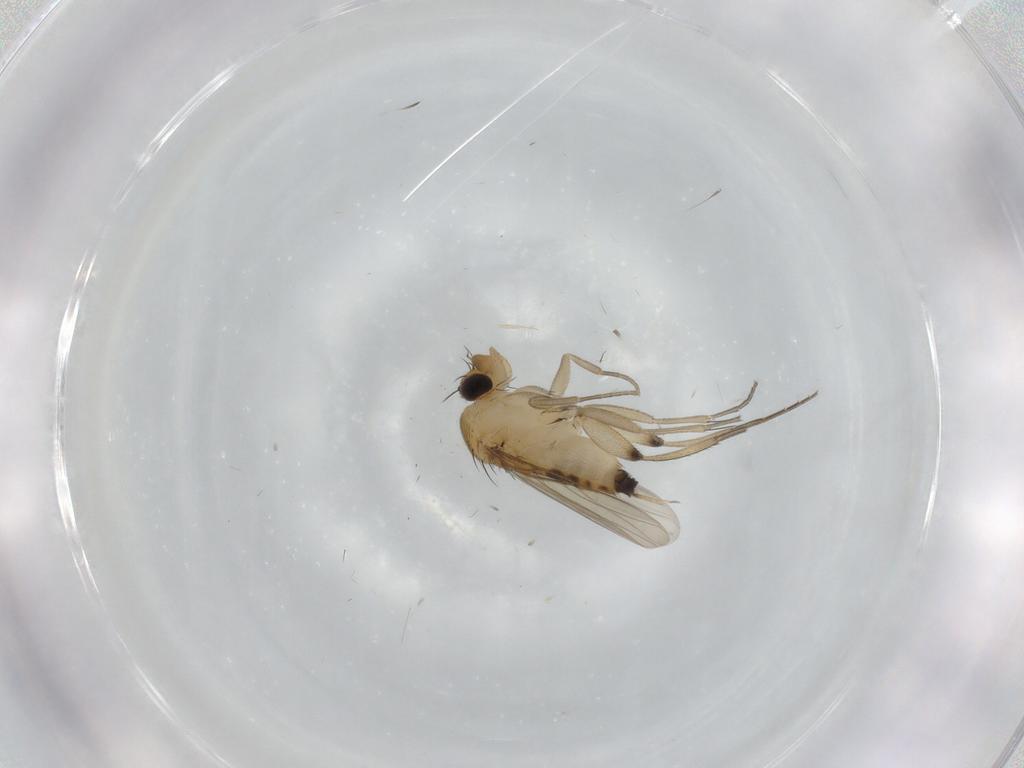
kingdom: Animalia
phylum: Arthropoda
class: Insecta
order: Diptera
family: Phoridae
